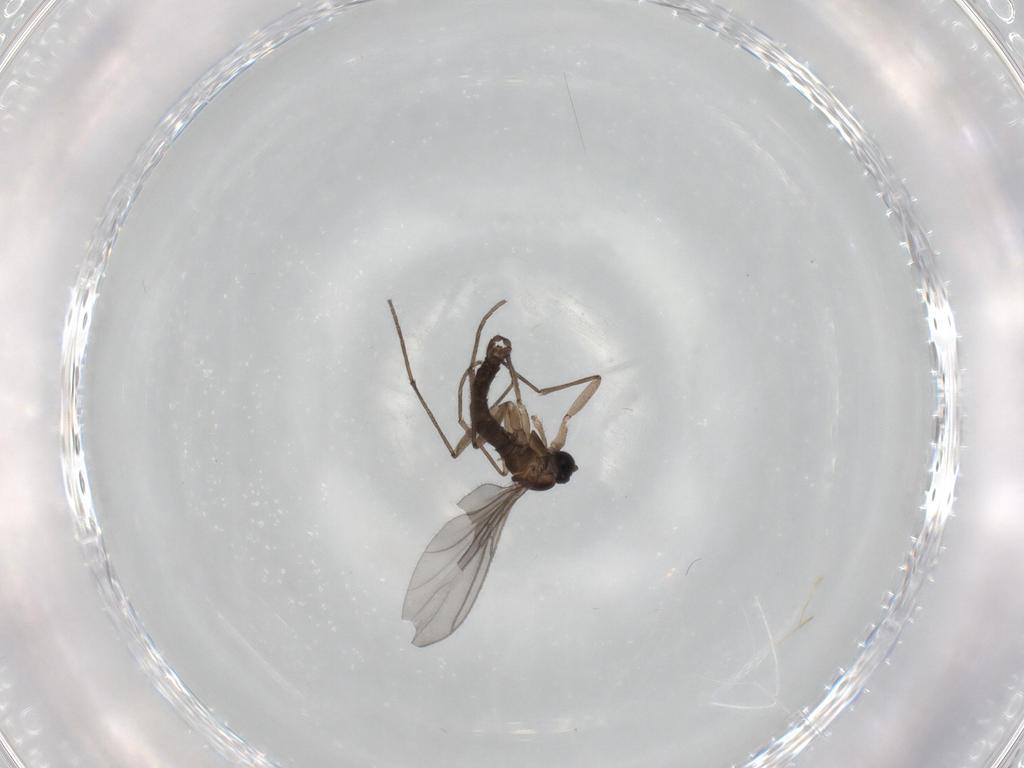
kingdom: Animalia
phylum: Arthropoda
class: Insecta
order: Diptera
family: Sciaridae
